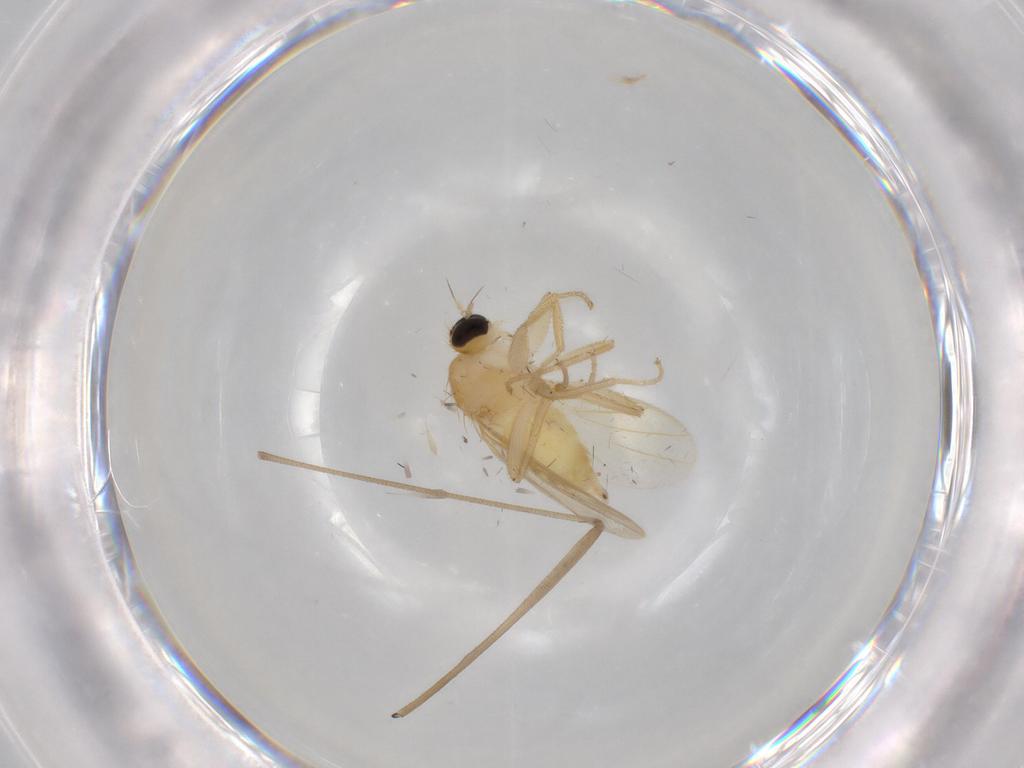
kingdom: Animalia
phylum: Arthropoda
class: Insecta
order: Diptera
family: Hybotidae
